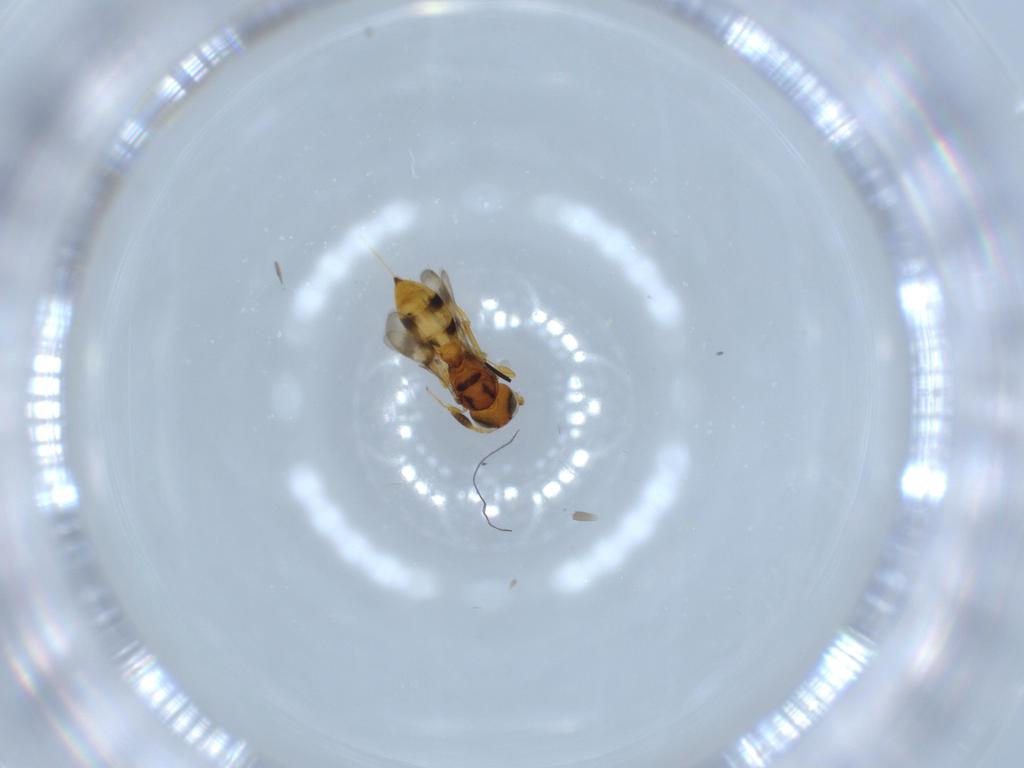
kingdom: Animalia
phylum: Arthropoda
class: Insecta
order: Hymenoptera
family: Scelionidae
